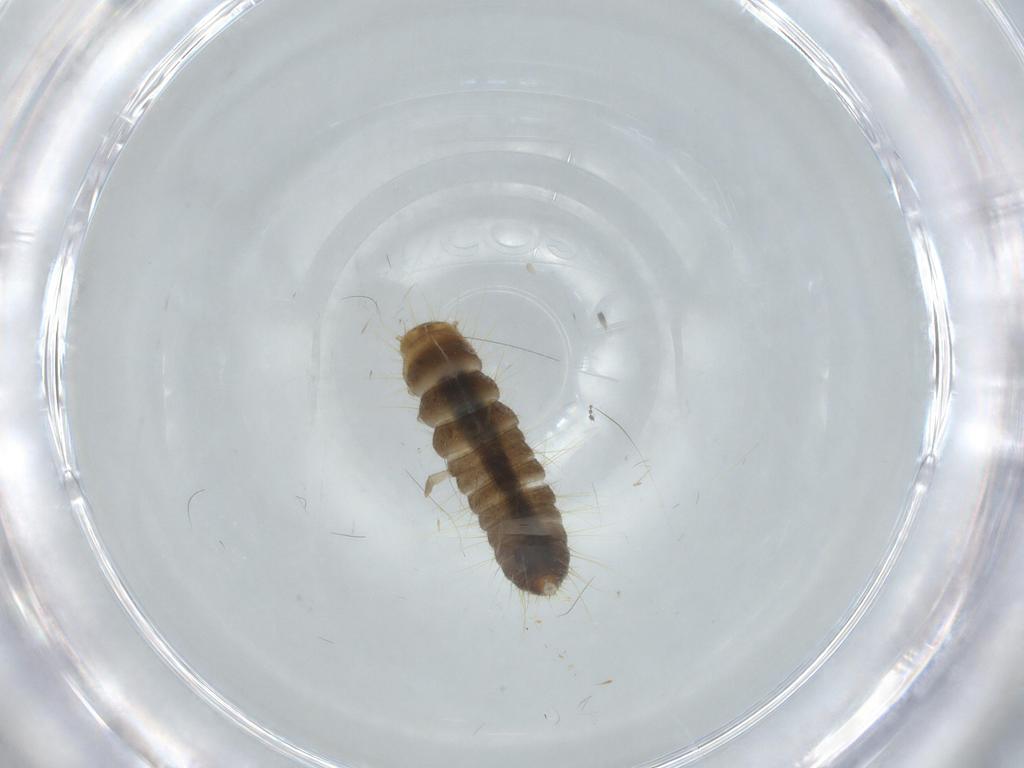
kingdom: Animalia
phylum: Arthropoda
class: Insecta
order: Coleoptera
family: Tenebrionidae
